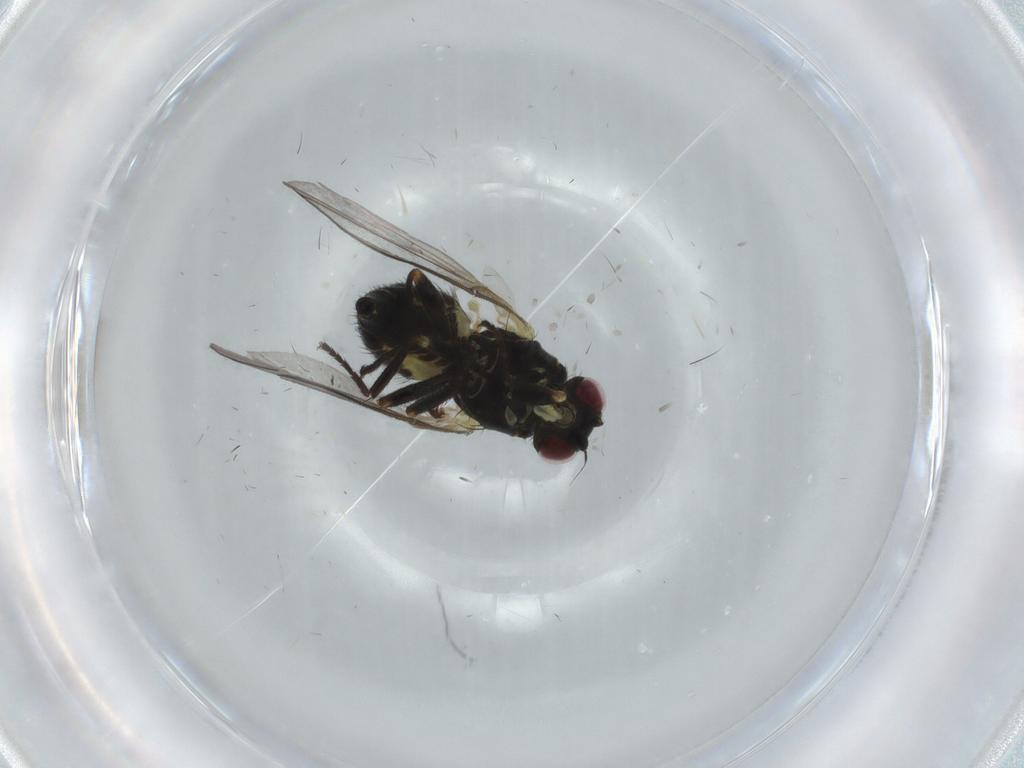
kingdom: Animalia
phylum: Arthropoda
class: Insecta
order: Diptera
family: Empididae
